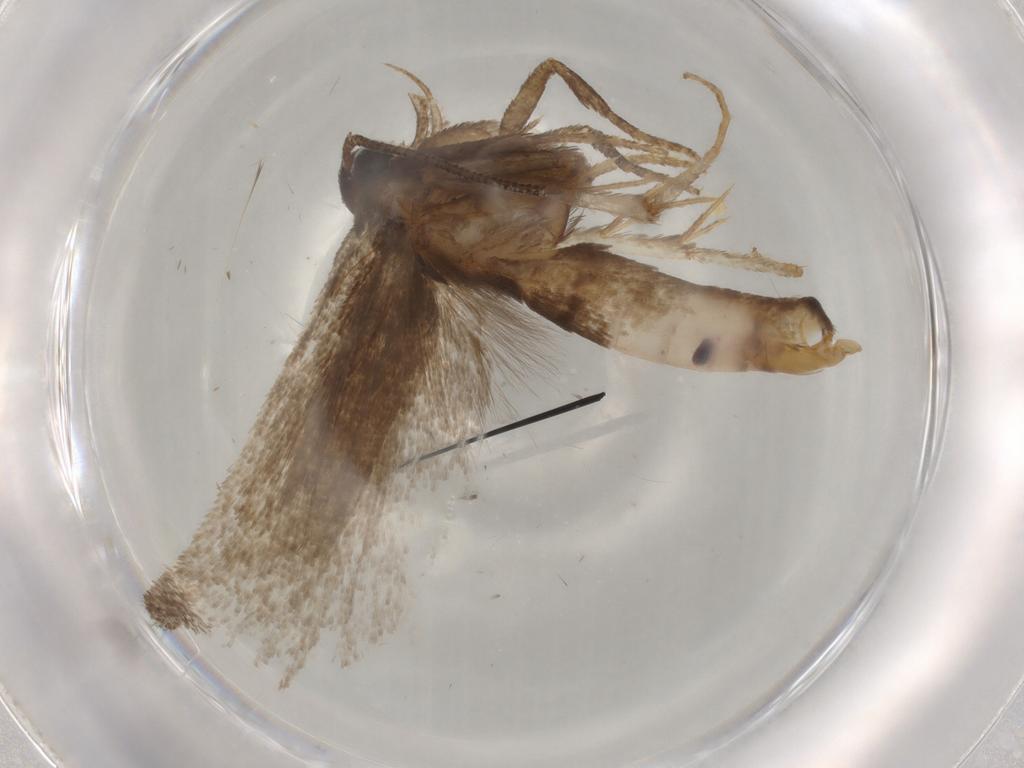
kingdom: Animalia
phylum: Arthropoda
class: Insecta
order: Lepidoptera
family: Gelechiidae
